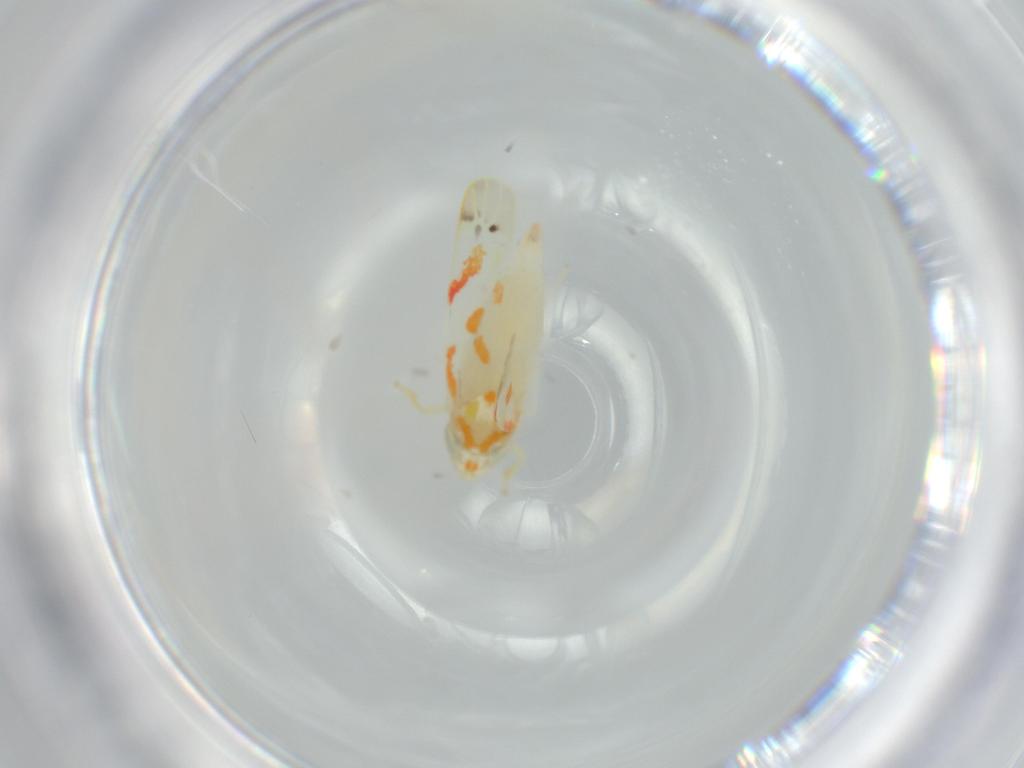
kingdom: Animalia
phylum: Arthropoda
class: Insecta
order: Hemiptera
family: Cicadellidae
